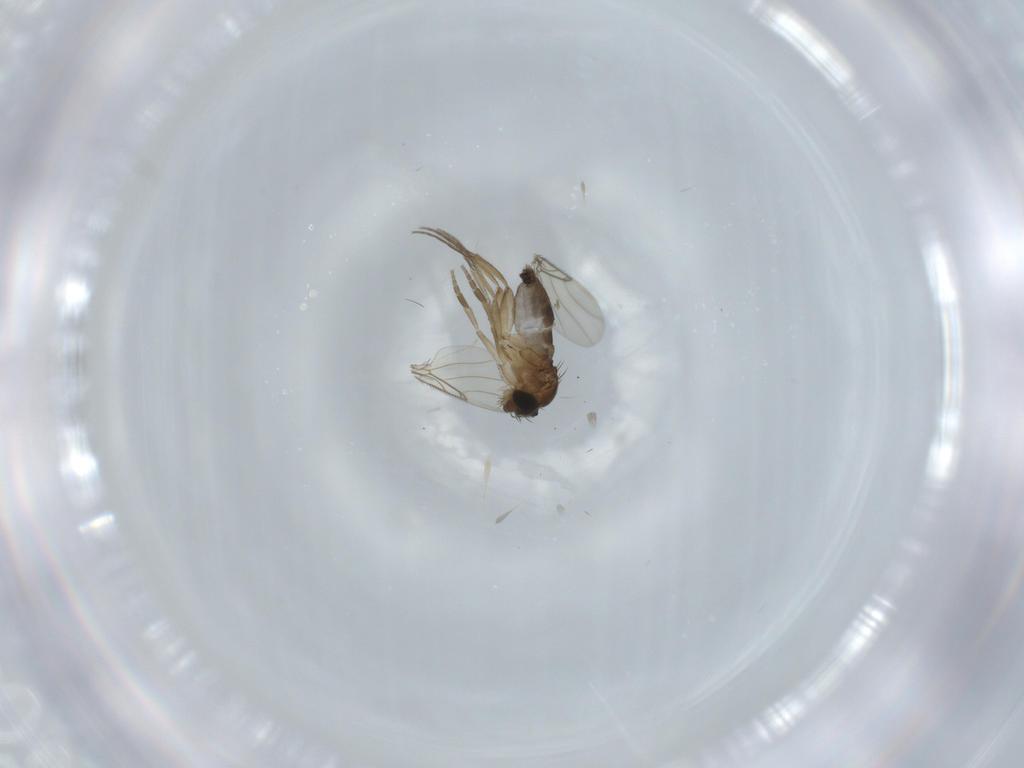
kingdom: Animalia
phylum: Arthropoda
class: Insecta
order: Diptera
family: Phoridae
